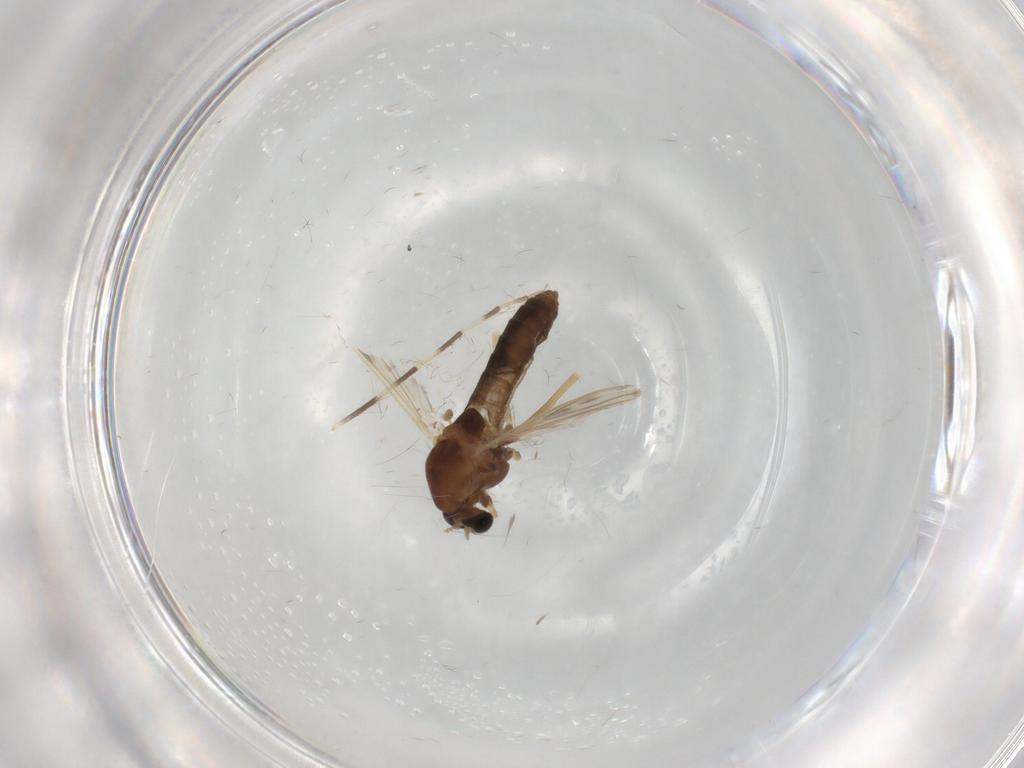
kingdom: Animalia
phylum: Arthropoda
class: Insecta
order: Diptera
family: Chironomidae
